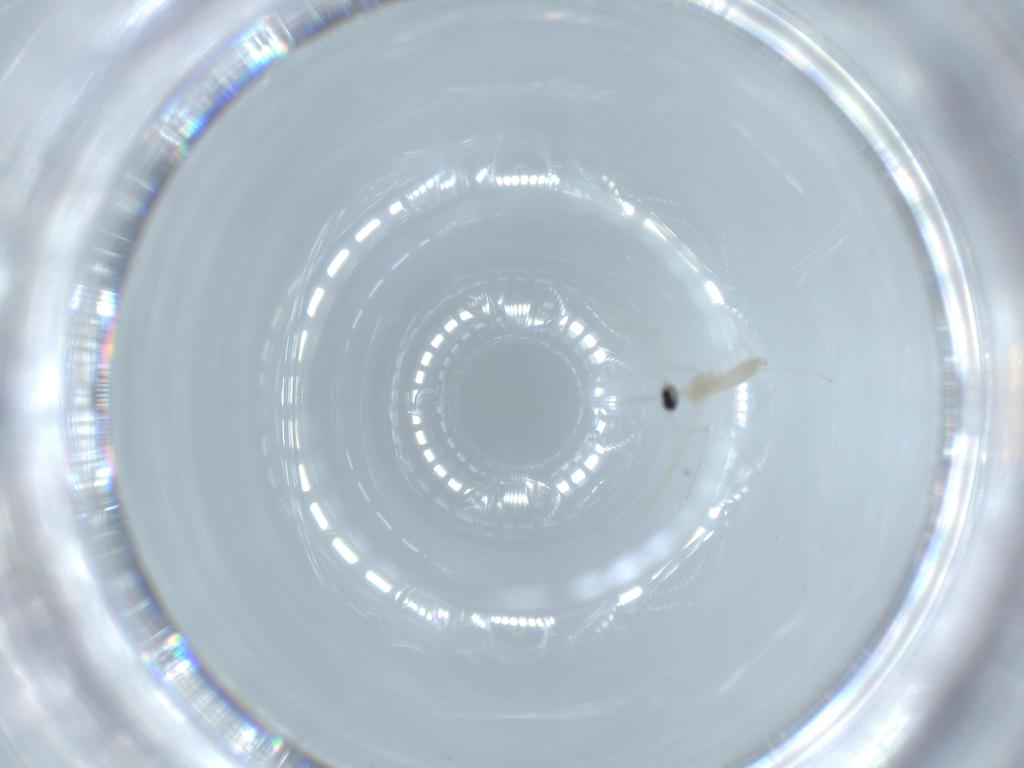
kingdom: Animalia
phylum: Arthropoda
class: Insecta
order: Diptera
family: Chironomidae
